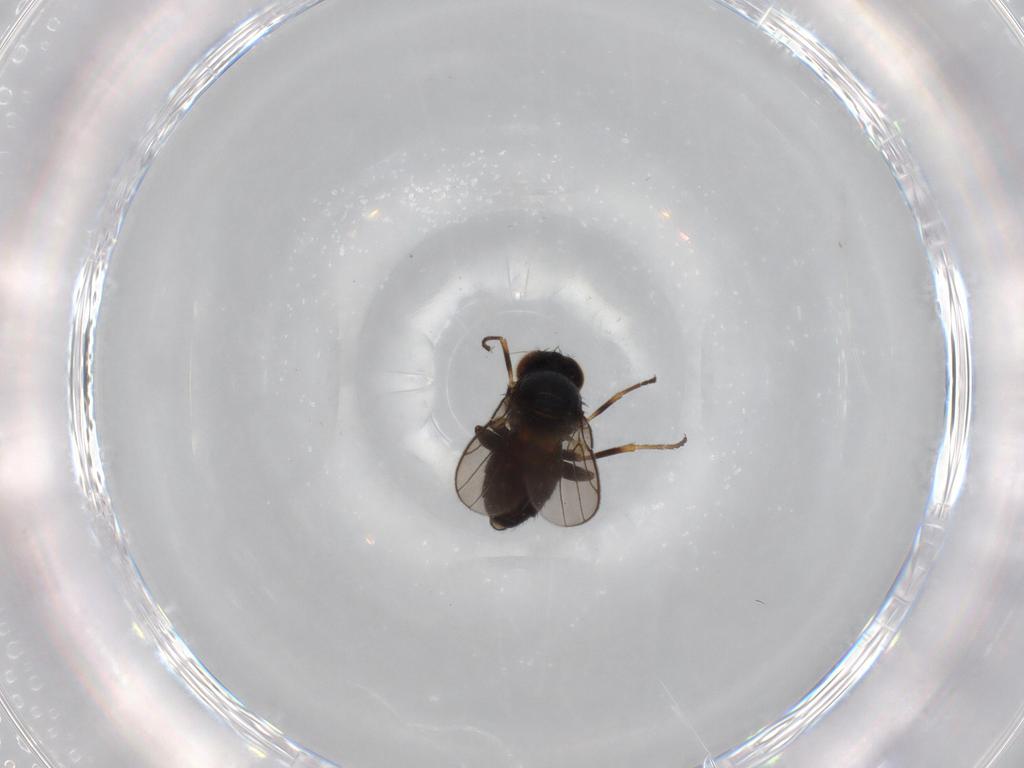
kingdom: Animalia
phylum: Arthropoda
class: Insecta
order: Diptera
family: Chloropidae
